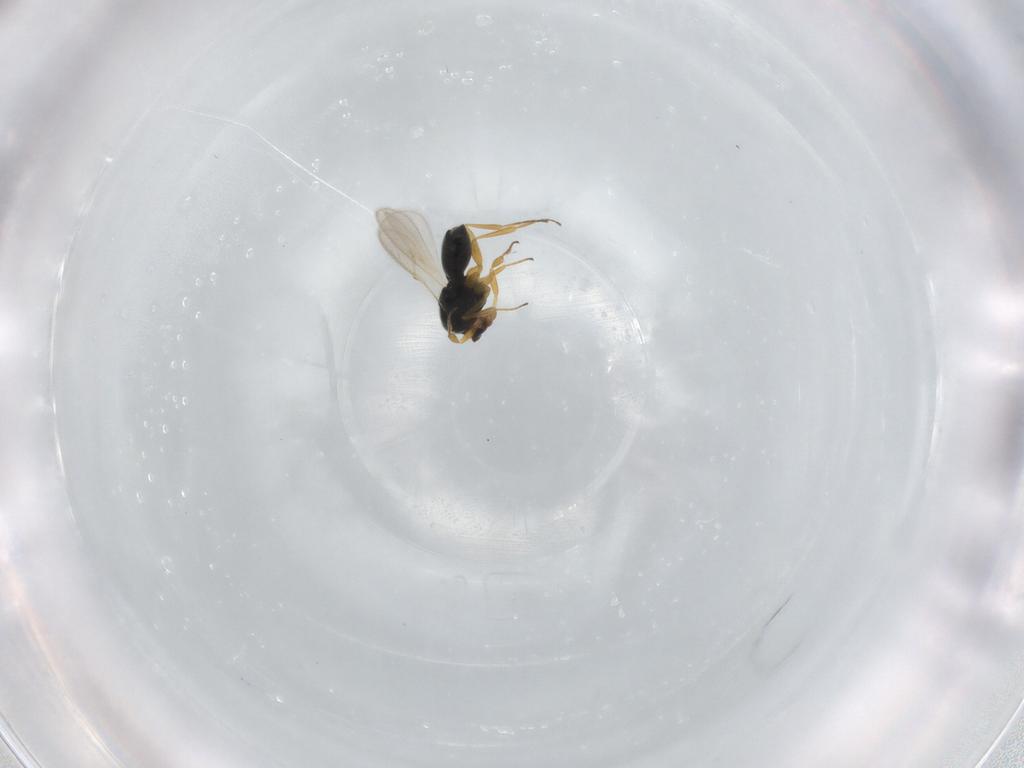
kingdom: Animalia
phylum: Arthropoda
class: Insecta
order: Hymenoptera
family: Scelionidae
